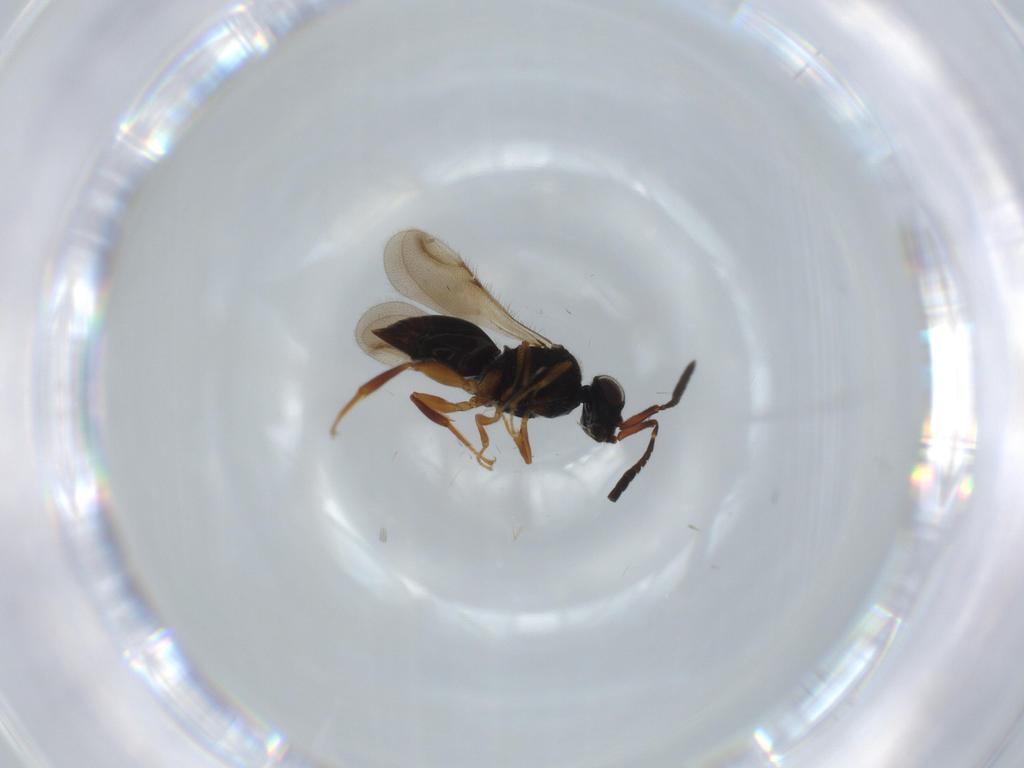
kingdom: Animalia
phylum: Arthropoda
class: Insecta
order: Hymenoptera
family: Formicidae
